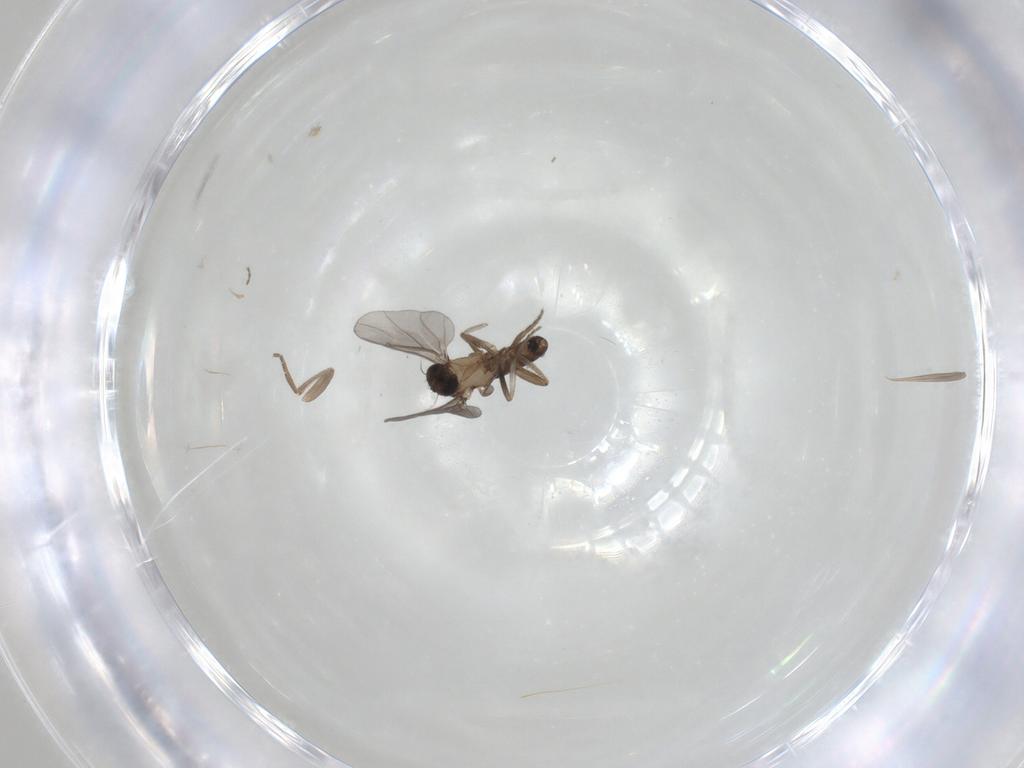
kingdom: Animalia
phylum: Arthropoda
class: Insecta
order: Diptera
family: Phoridae
